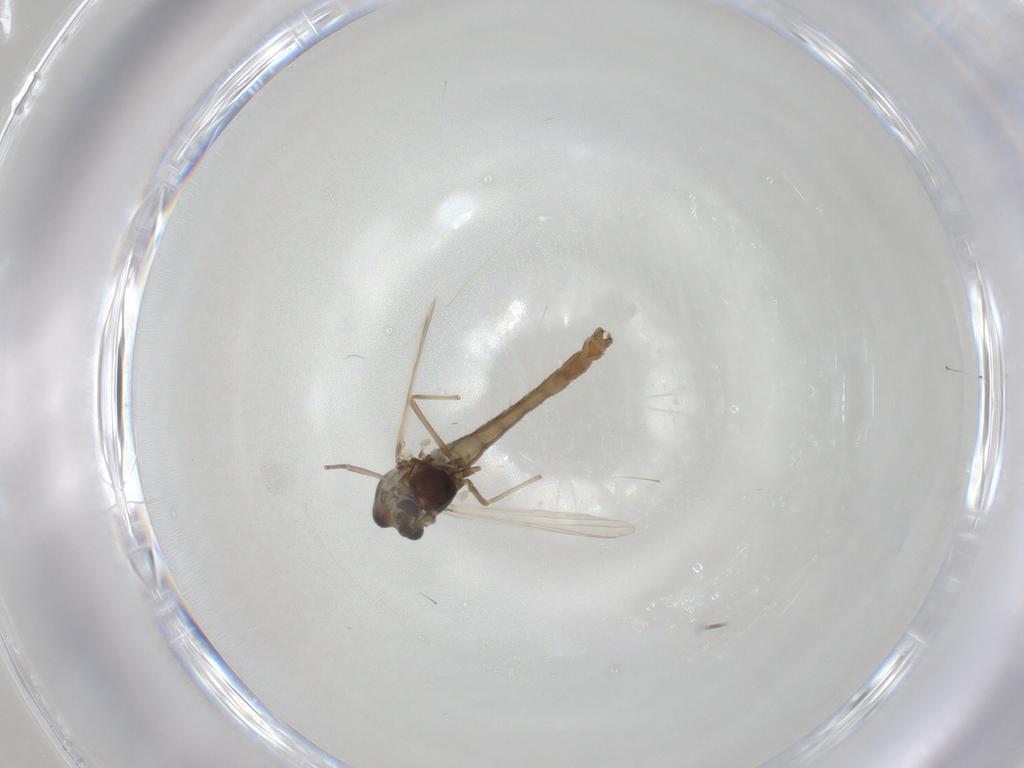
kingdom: Animalia
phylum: Arthropoda
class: Insecta
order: Diptera
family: Chironomidae
